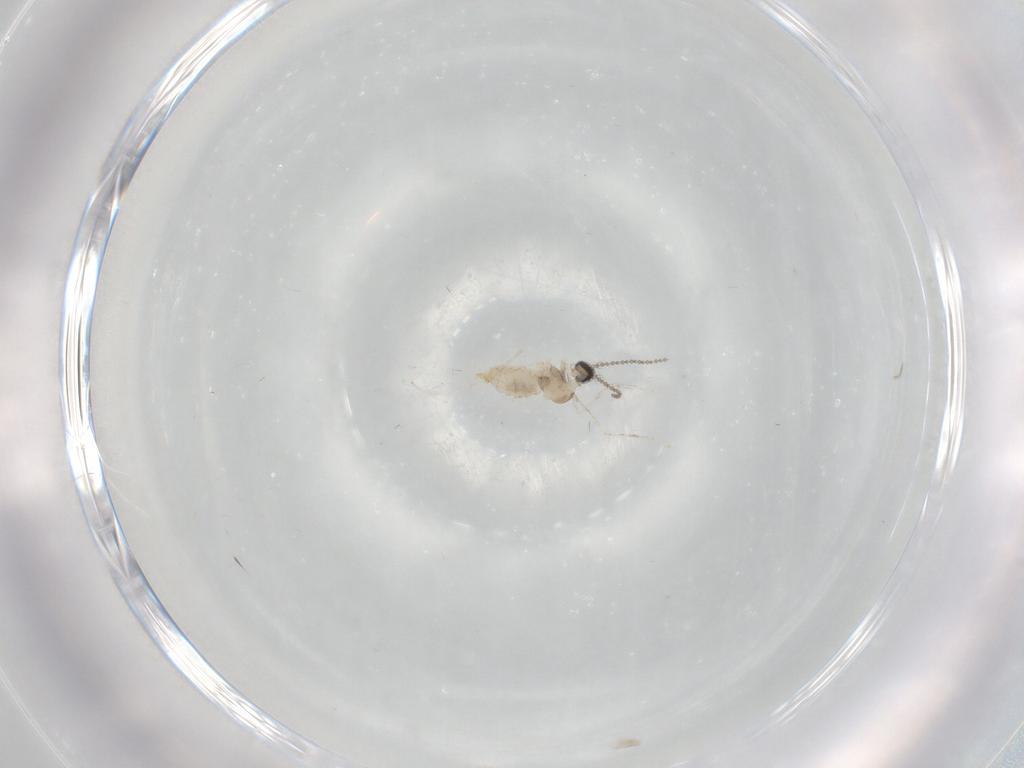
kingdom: Animalia
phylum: Arthropoda
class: Insecta
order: Diptera
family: Cecidomyiidae
